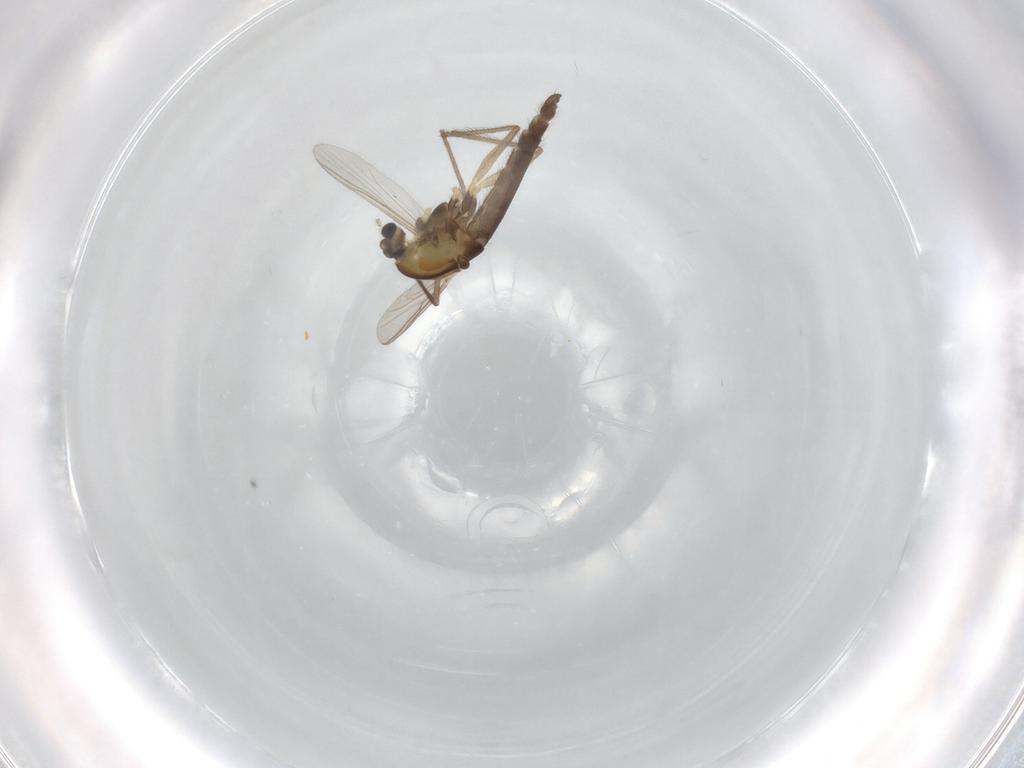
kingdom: Animalia
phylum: Arthropoda
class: Insecta
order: Diptera
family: Chironomidae
